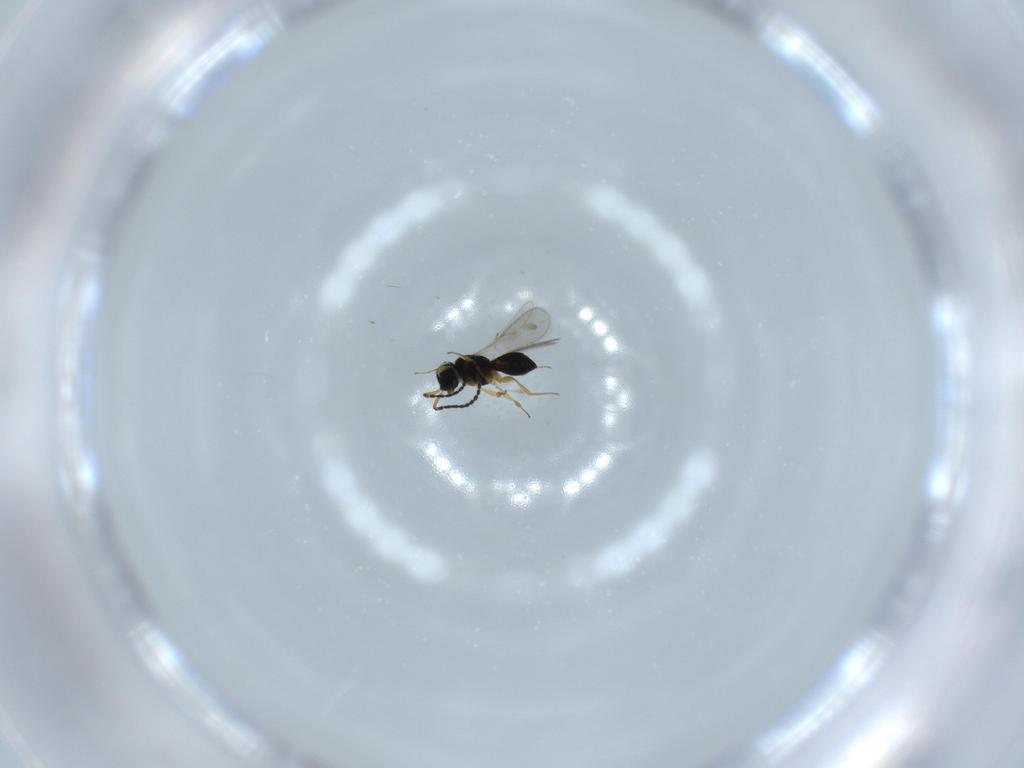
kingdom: Animalia
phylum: Arthropoda
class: Insecta
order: Hymenoptera
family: Scelionidae
